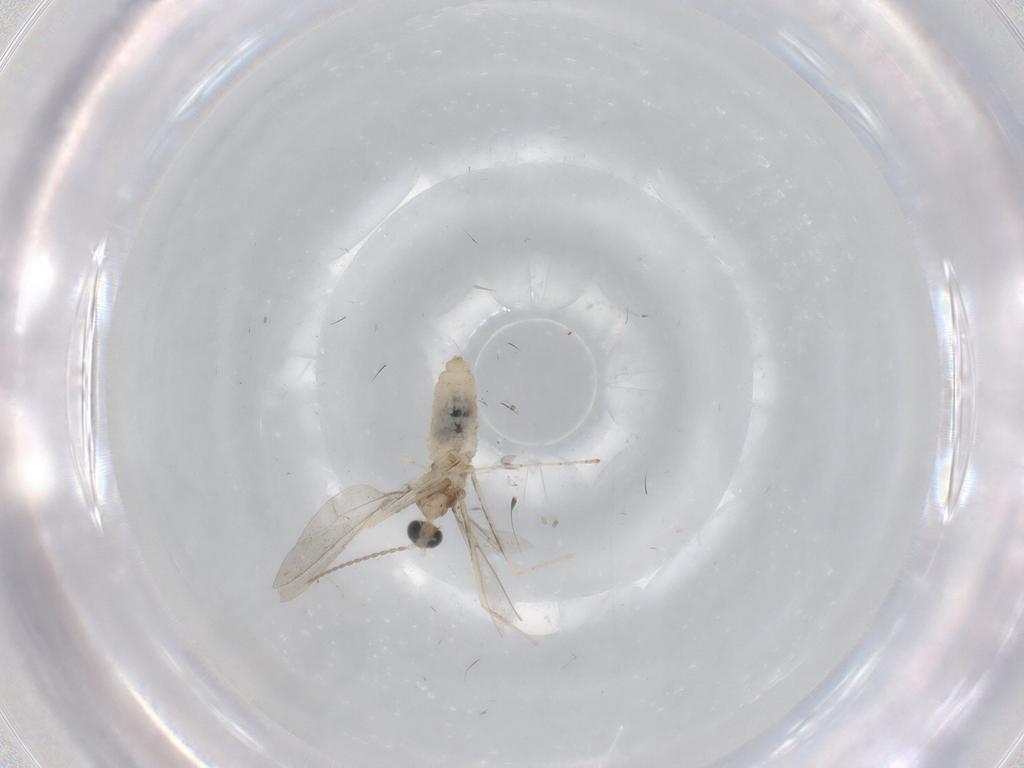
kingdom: Animalia
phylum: Arthropoda
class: Insecta
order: Diptera
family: Cecidomyiidae
